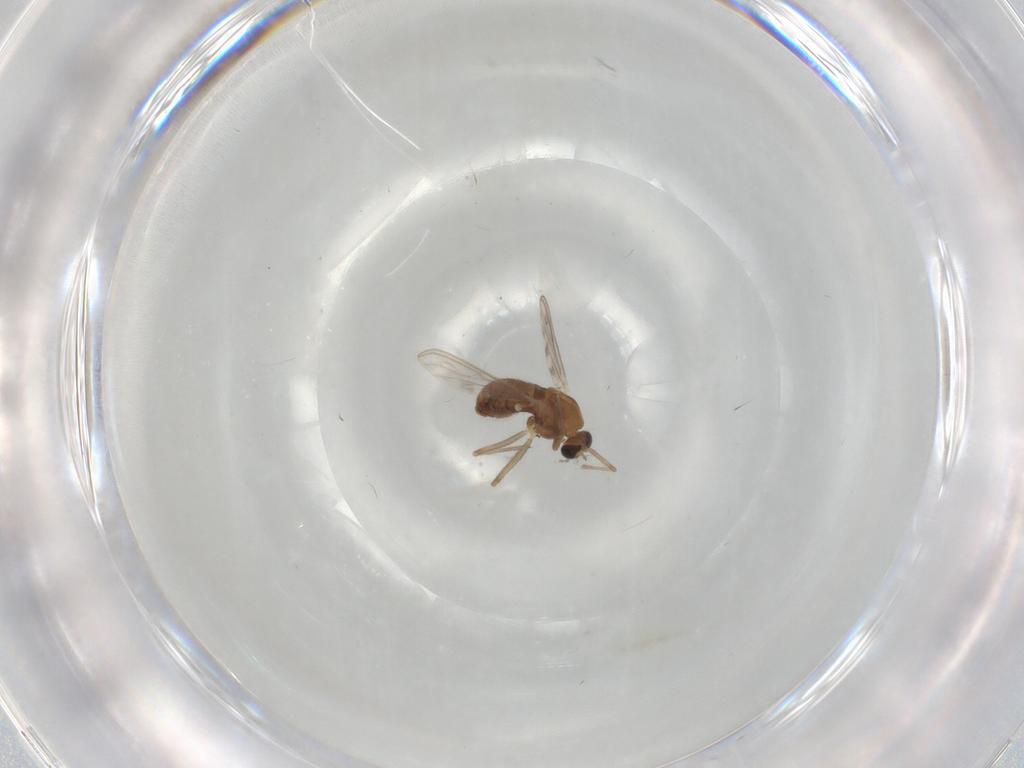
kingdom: Animalia
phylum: Arthropoda
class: Insecta
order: Diptera
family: Chironomidae
